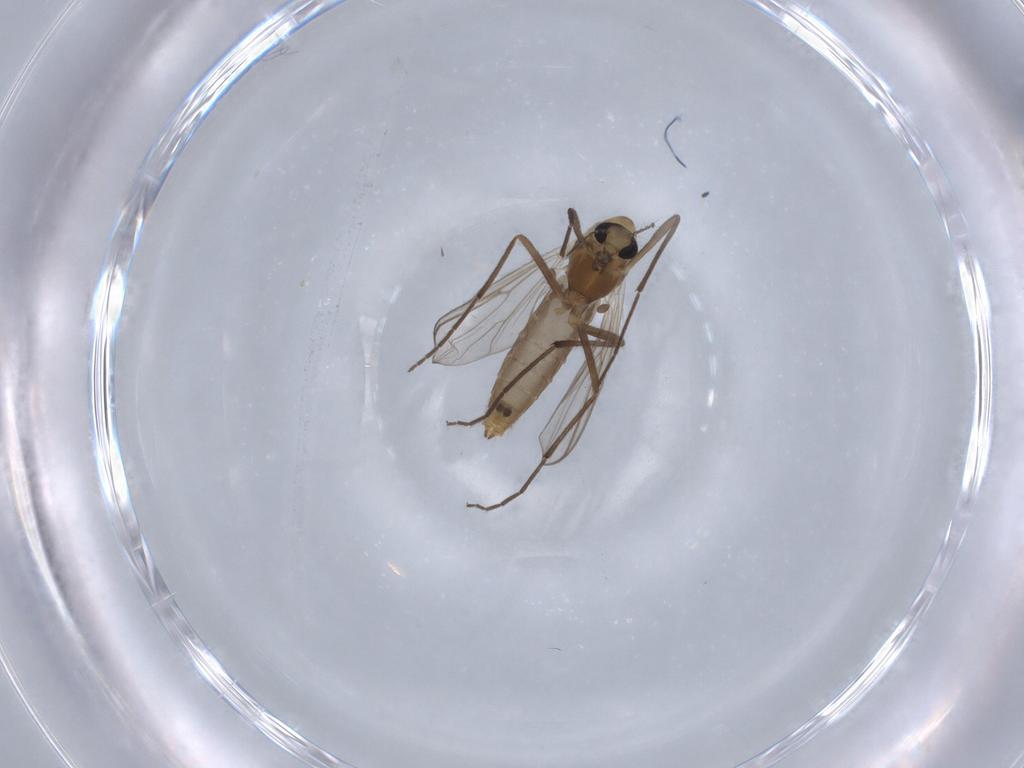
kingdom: Animalia
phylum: Arthropoda
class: Insecta
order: Diptera
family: Chironomidae
